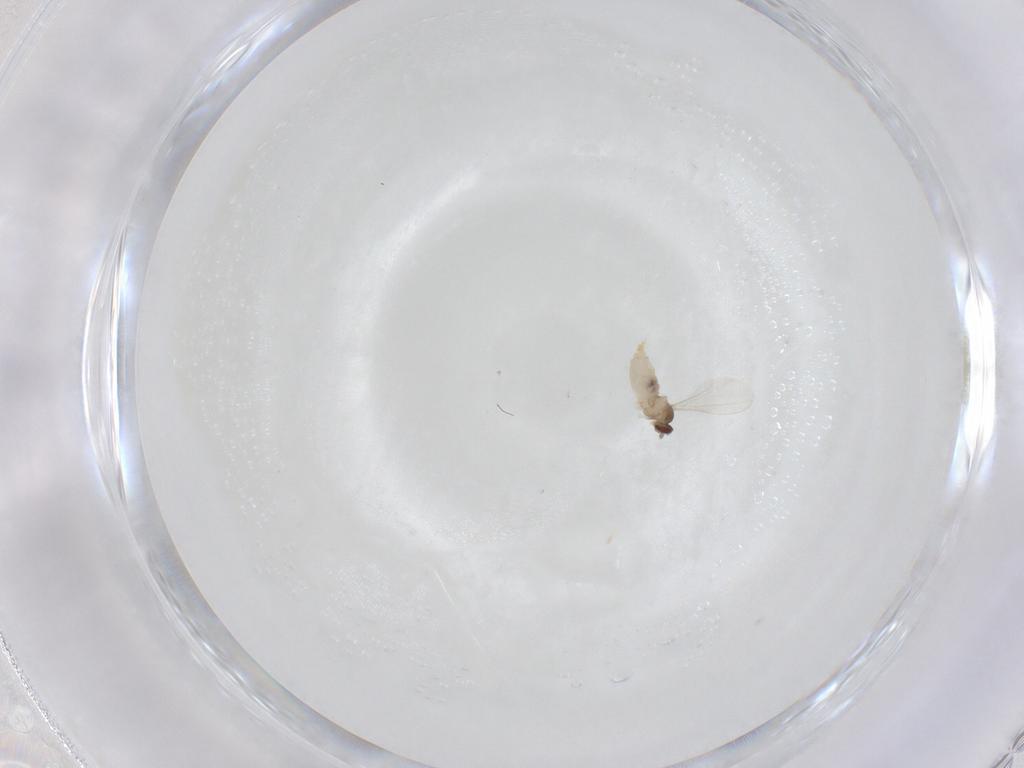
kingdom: Animalia
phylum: Arthropoda
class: Insecta
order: Diptera
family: Cecidomyiidae
